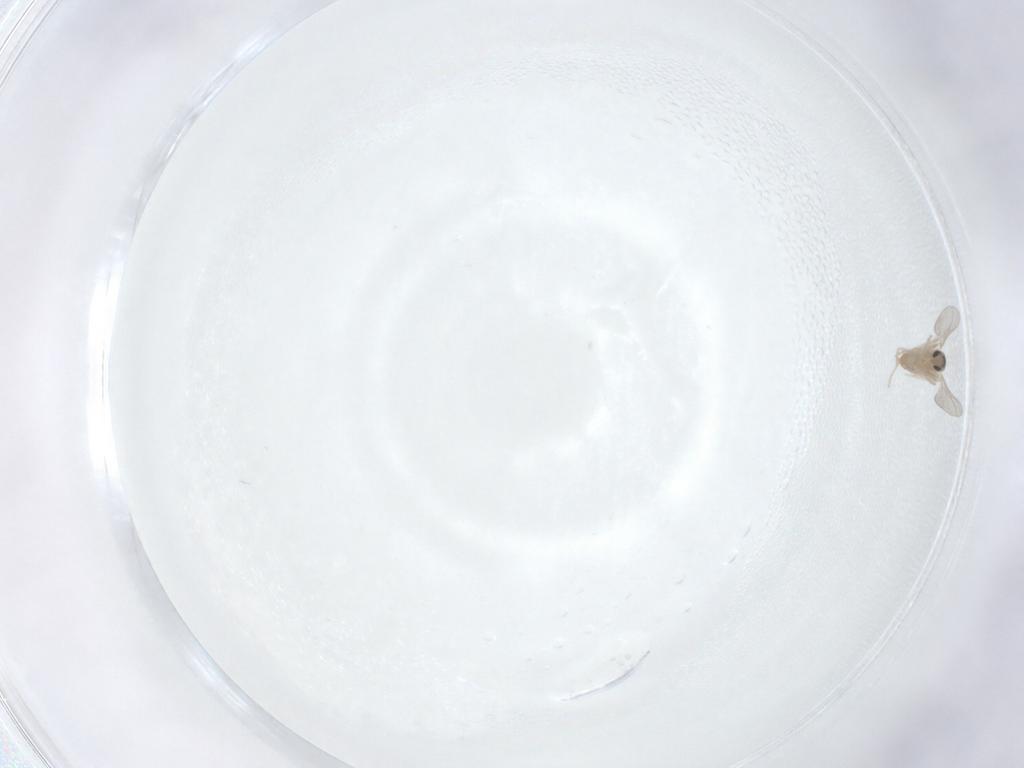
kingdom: Animalia
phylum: Arthropoda
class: Insecta
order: Diptera
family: Cecidomyiidae
